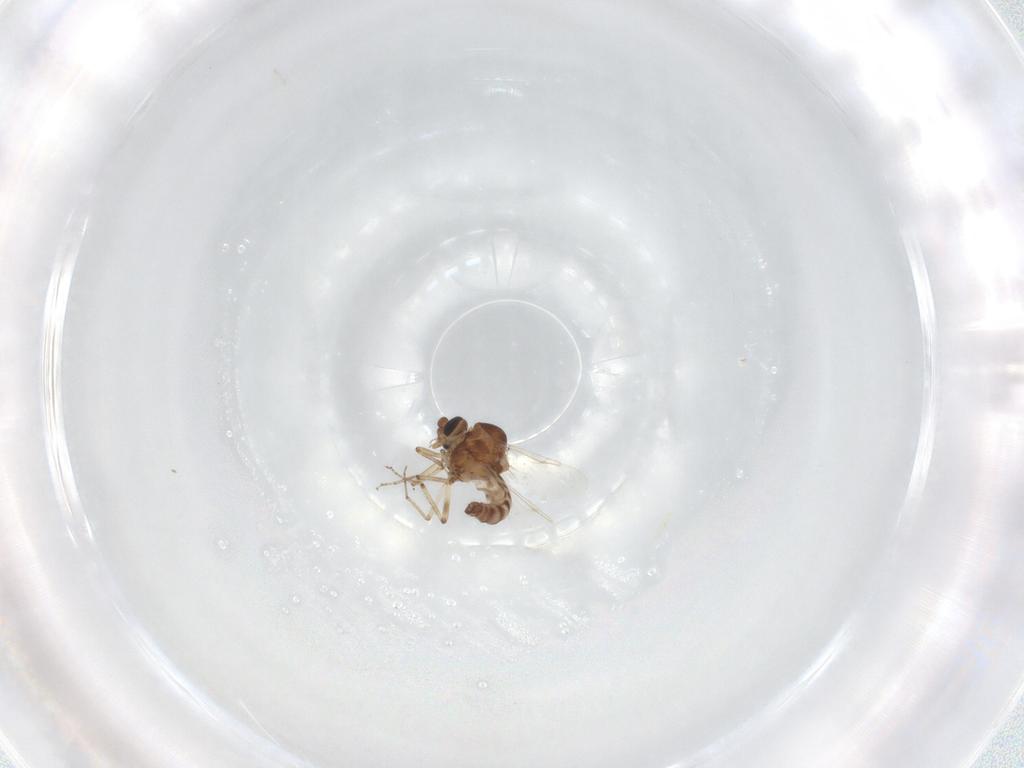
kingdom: Animalia
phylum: Arthropoda
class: Insecta
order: Diptera
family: Ceratopogonidae
